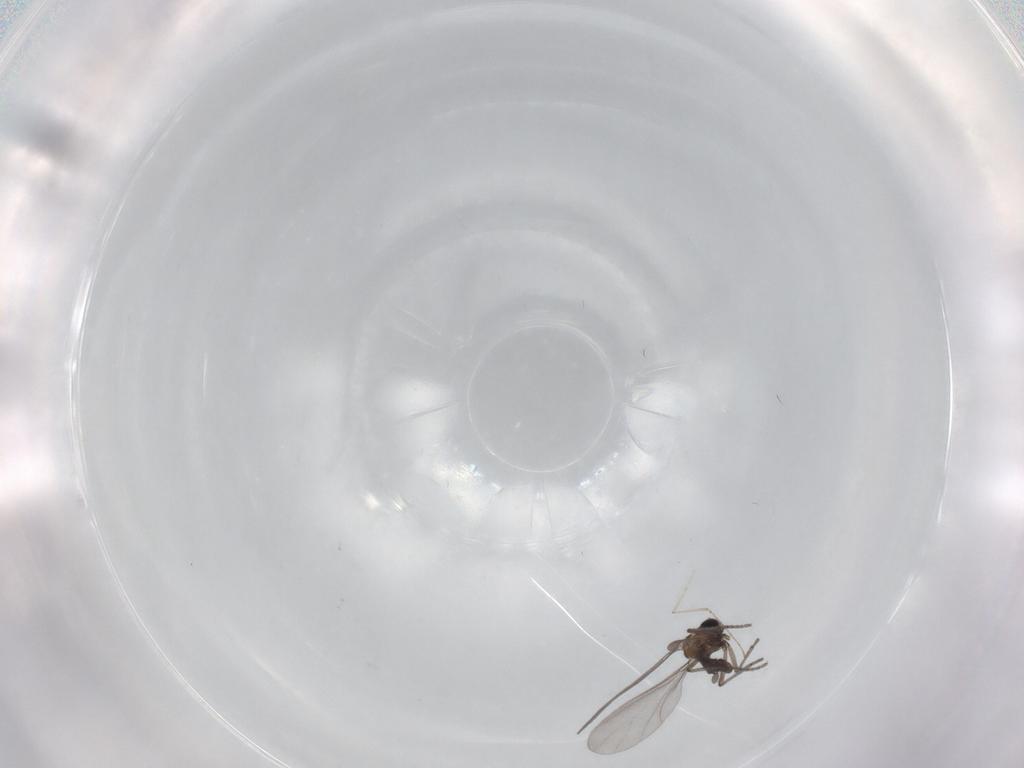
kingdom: Animalia
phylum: Arthropoda
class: Insecta
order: Diptera
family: Sciaridae
